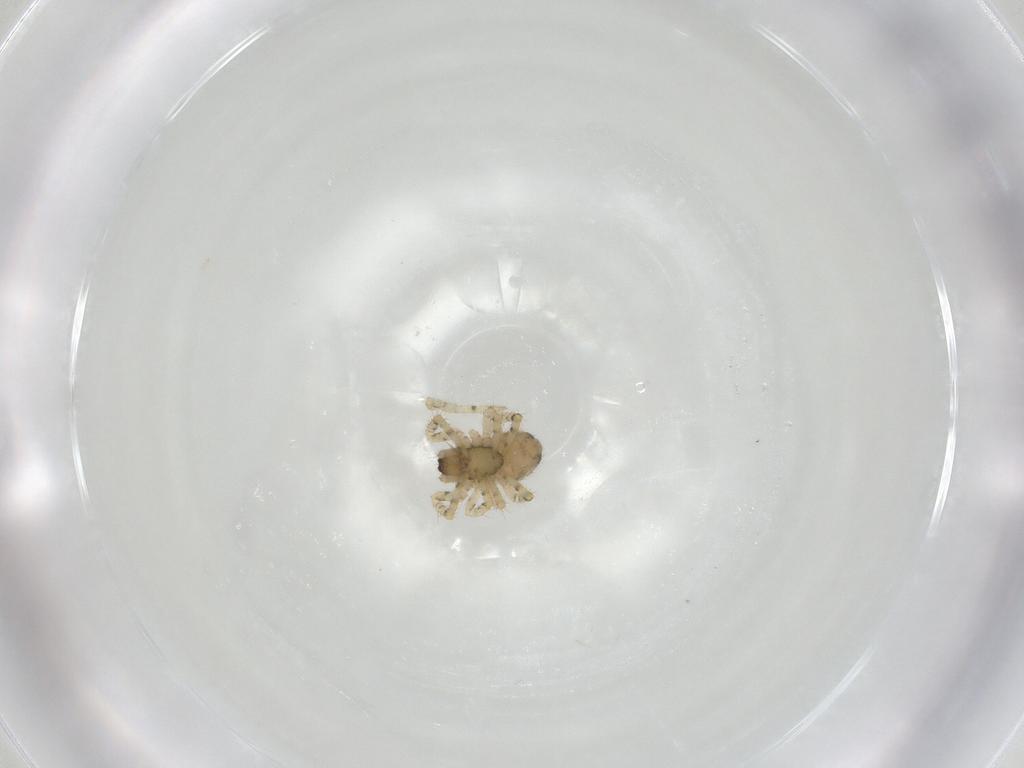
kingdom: Animalia
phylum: Arthropoda
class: Arachnida
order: Araneae
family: Theridiidae
